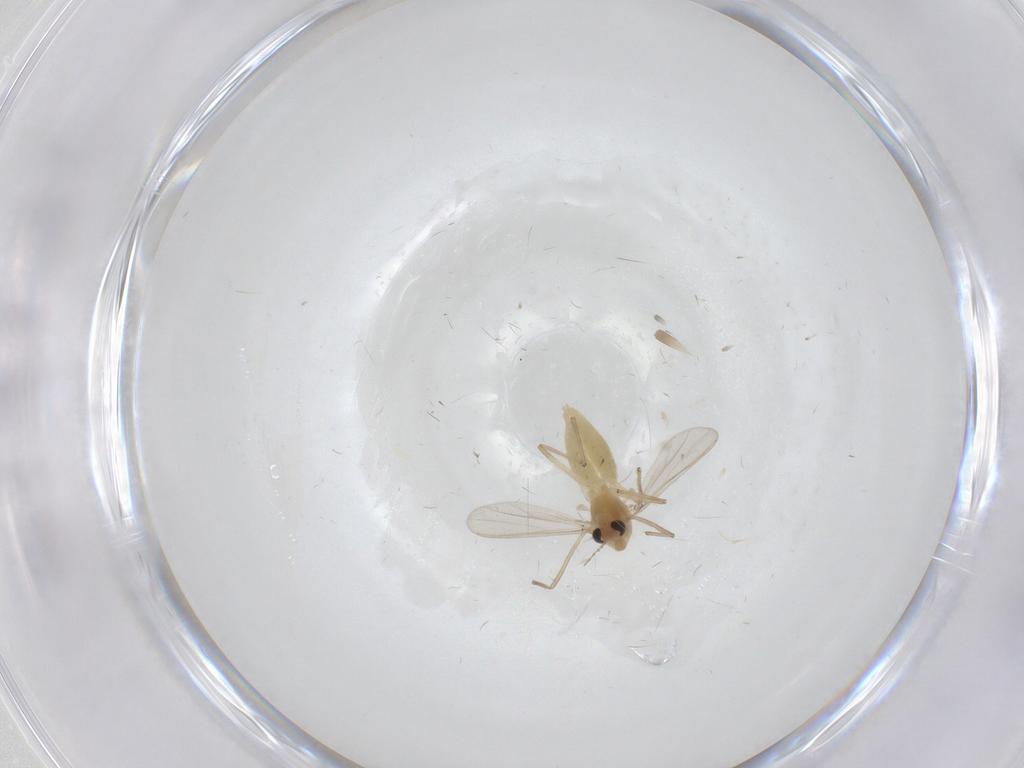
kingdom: Animalia
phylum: Arthropoda
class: Insecta
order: Diptera
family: Chironomidae
